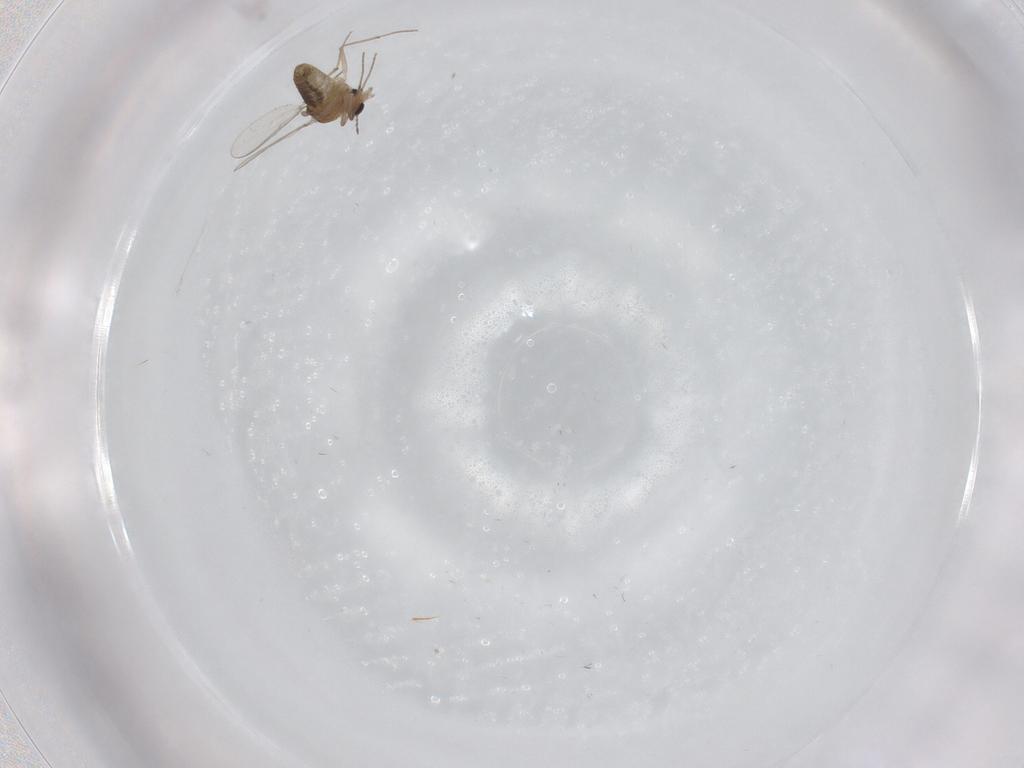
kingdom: Animalia
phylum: Arthropoda
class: Insecta
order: Diptera
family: Chironomidae
